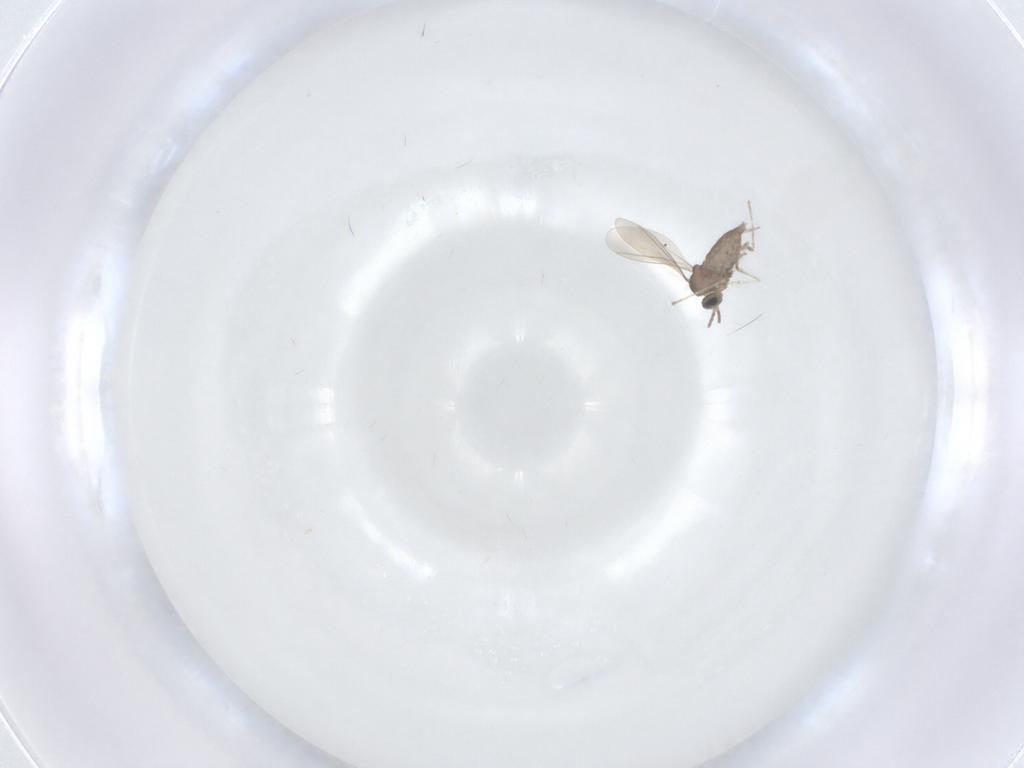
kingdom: Animalia
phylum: Arthropoda
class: Insecta
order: Diptera
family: Cecidomyiidae
